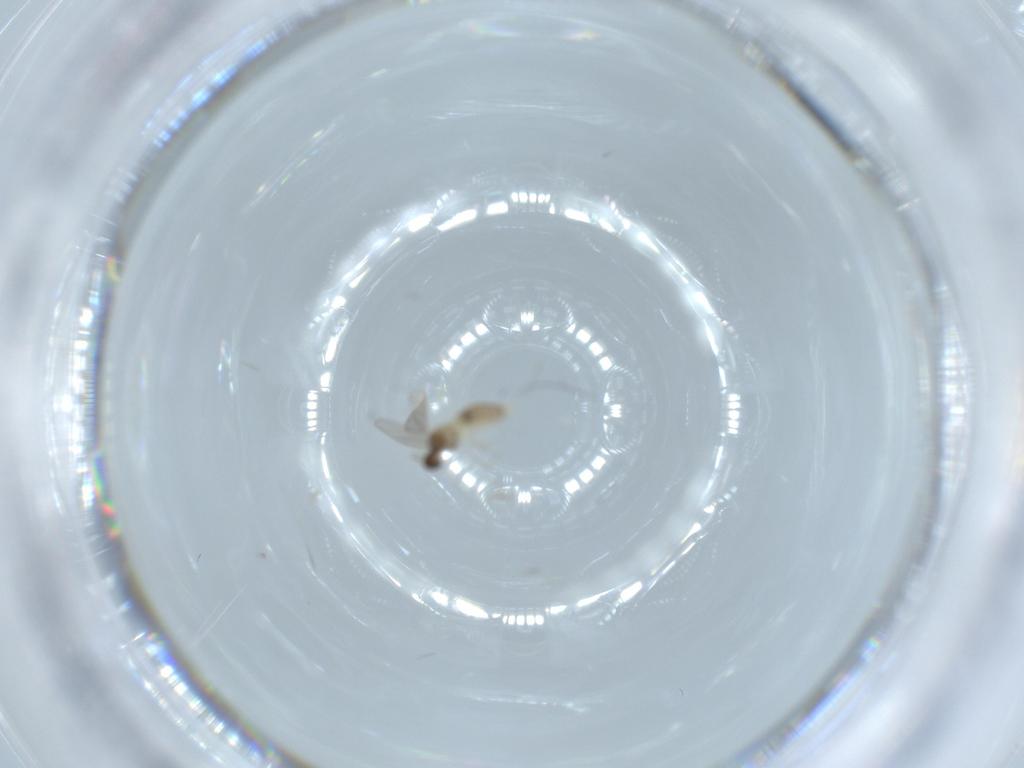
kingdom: Animalia
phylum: Arthropoda
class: Insecta
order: Diptera
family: Cecidomyiidae
